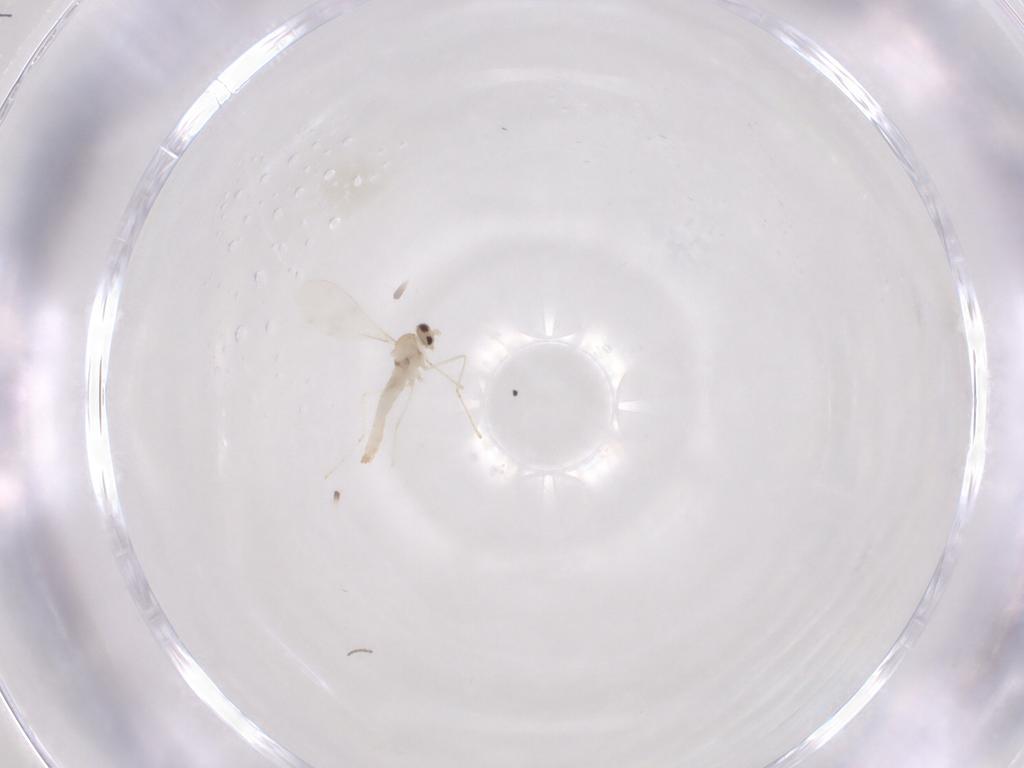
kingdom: Animalia
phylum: Arthropoda
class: Insecta
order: Diptera
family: Cecidomyiidae
